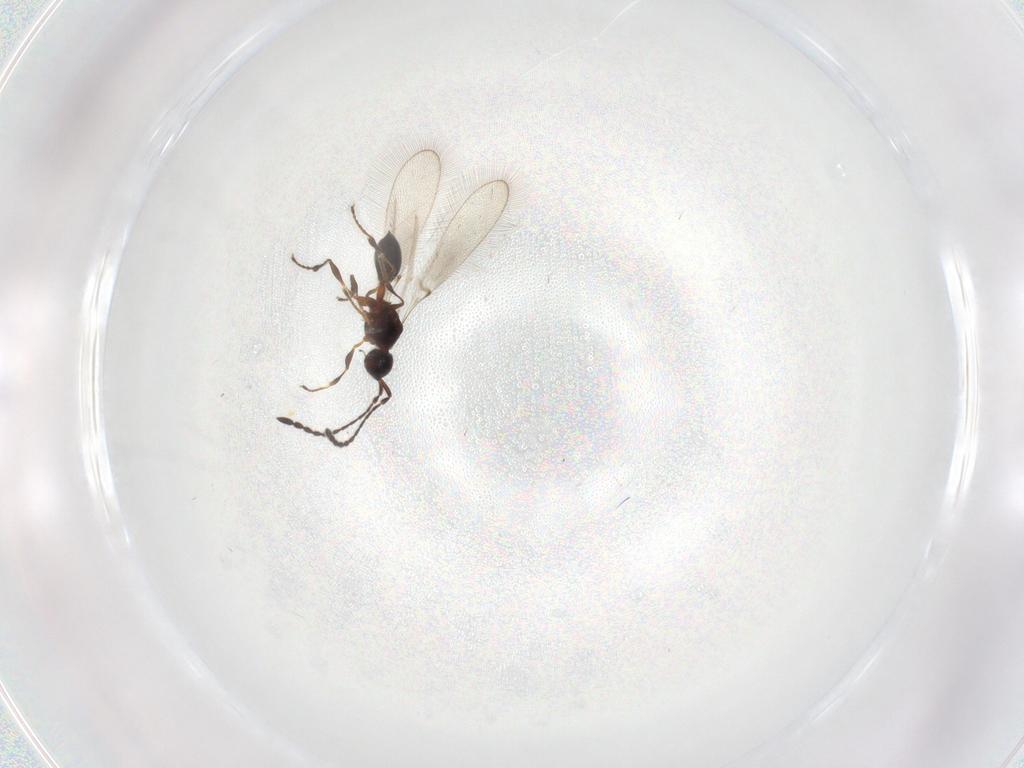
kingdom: Animalia
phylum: Arthropoda
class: Insecta
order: Hymenoptera
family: Diapriidae
